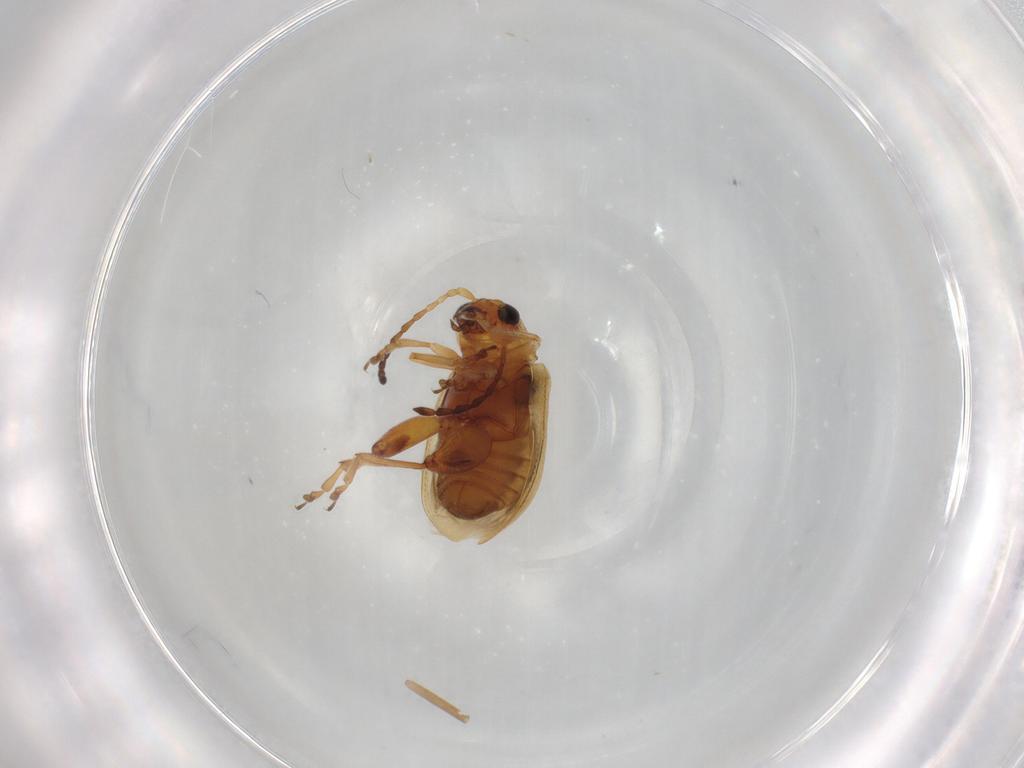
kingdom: Animalia
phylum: Arthropoda
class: Insecta
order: Coleoptera
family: Chrysomelidae
